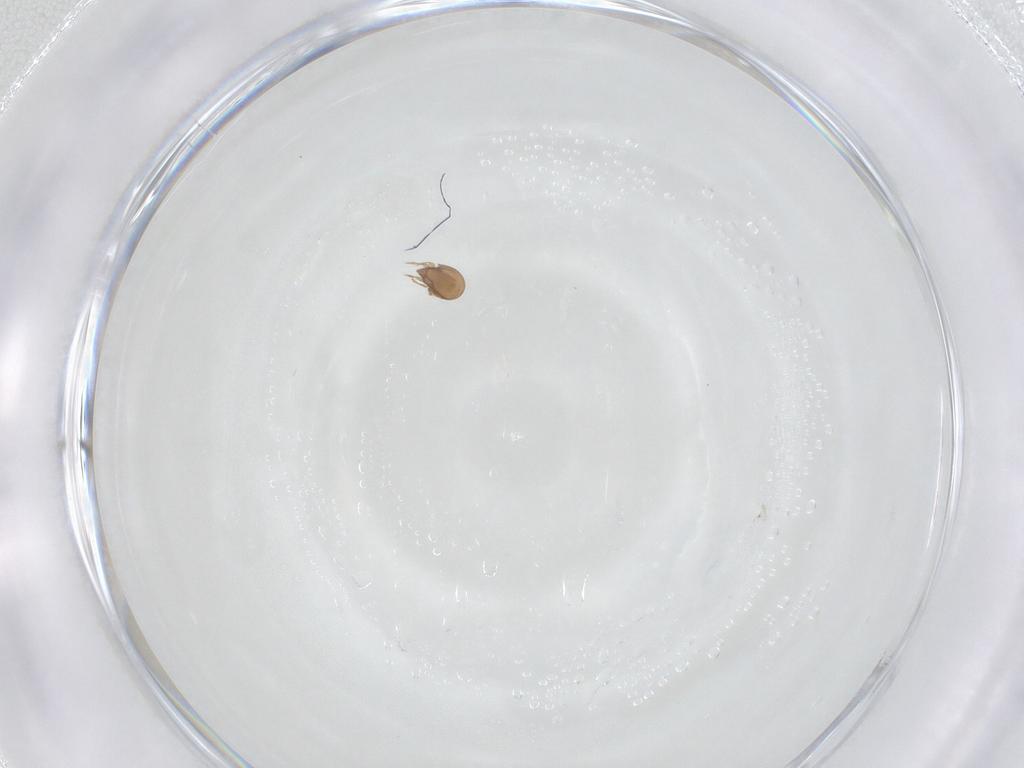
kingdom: Animalia
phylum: Arthropoda
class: Arachnida
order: Sarcoptiformes
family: Scheloribatidae
